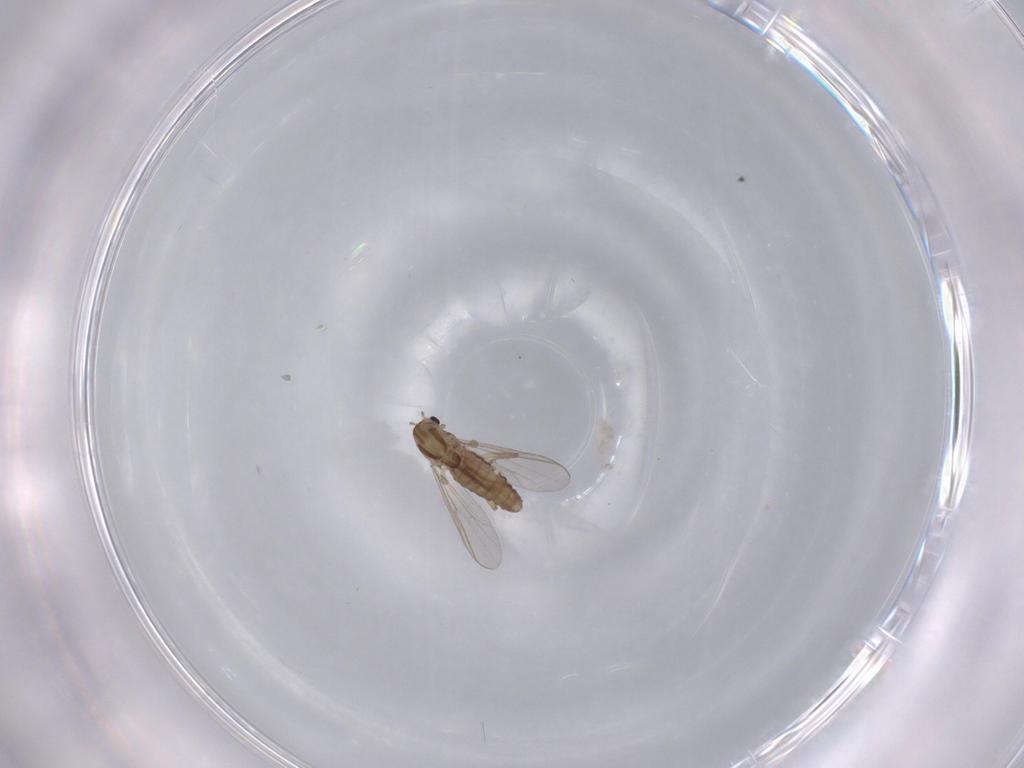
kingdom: Animalia
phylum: Arthropoda
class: Insecta
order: Diptera
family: Chironomidae
